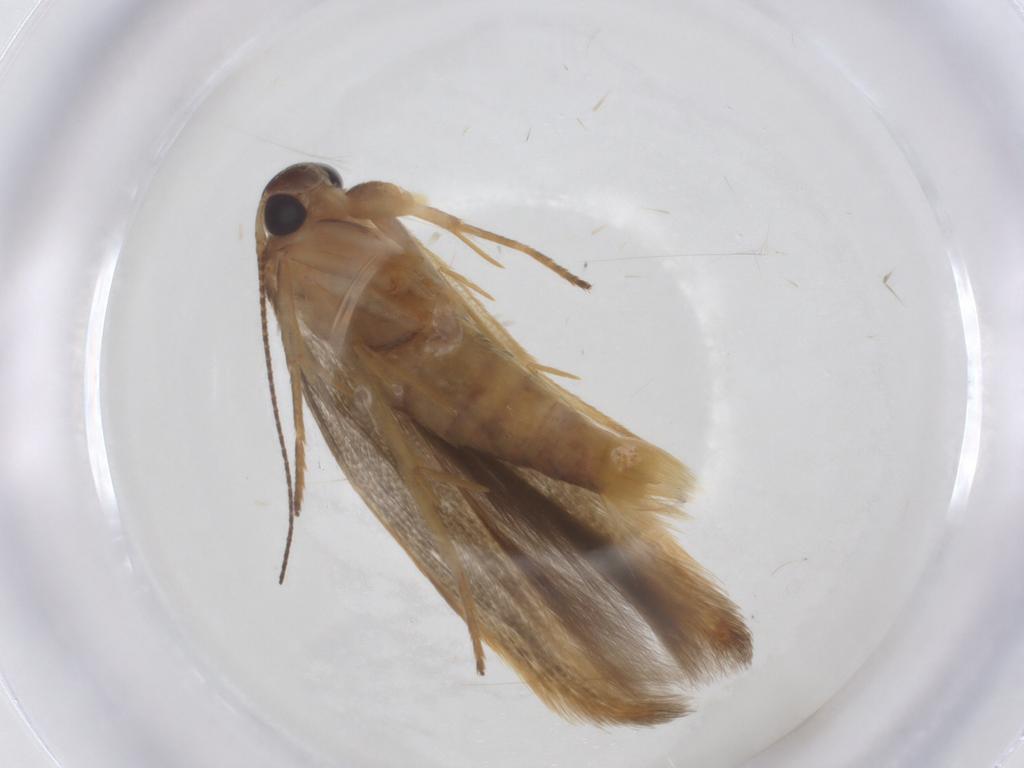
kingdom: Animalia
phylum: Arthropoda
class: Insecta
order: Lepidoptera
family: Stathmopodidae
